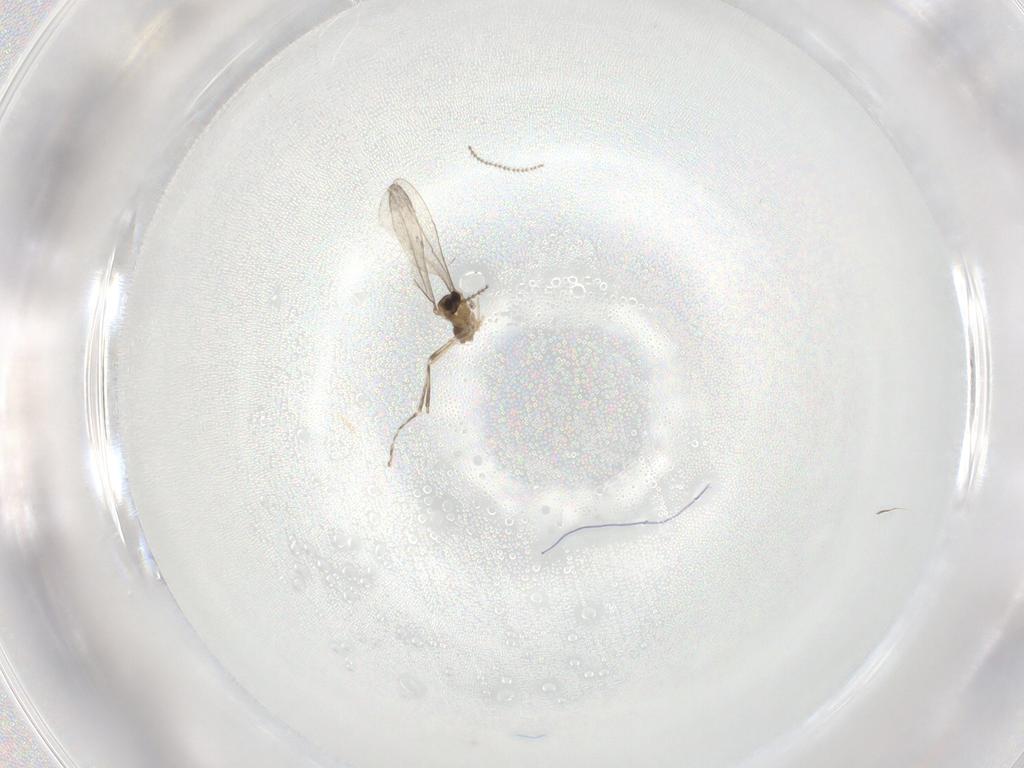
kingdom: Animalia
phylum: Arthropoda
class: Insecta
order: Diptera
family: Cecidomyiidae
